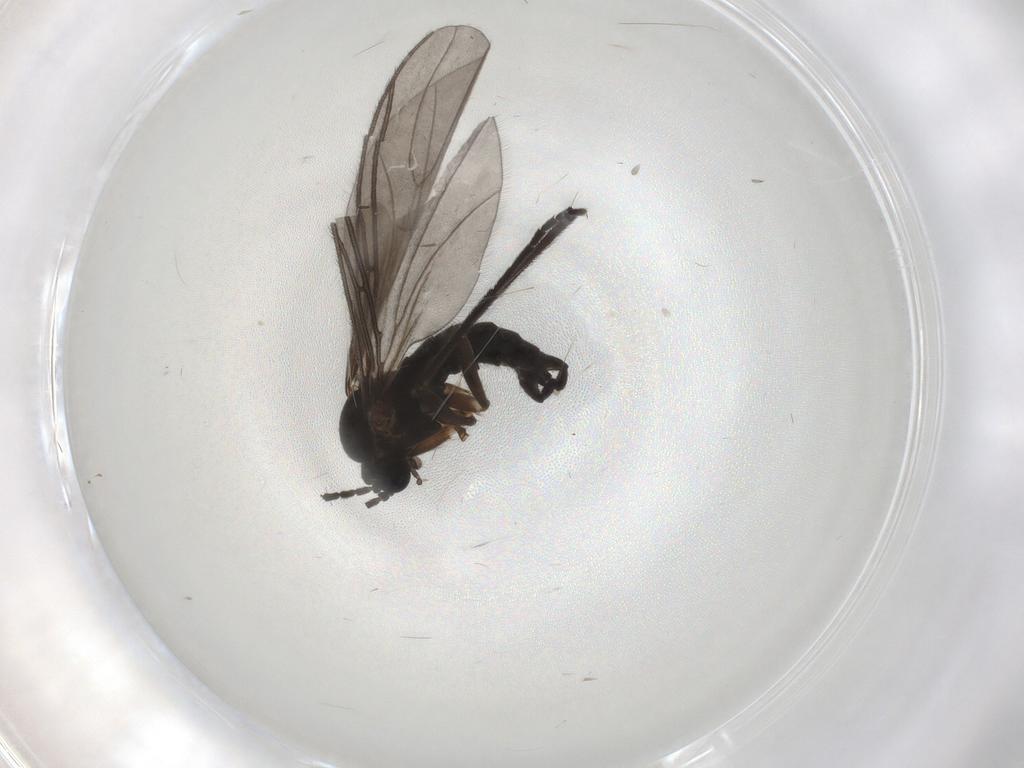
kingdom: Animalia
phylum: Arthropoda
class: Insecta
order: Diptera
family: Sciaridae
